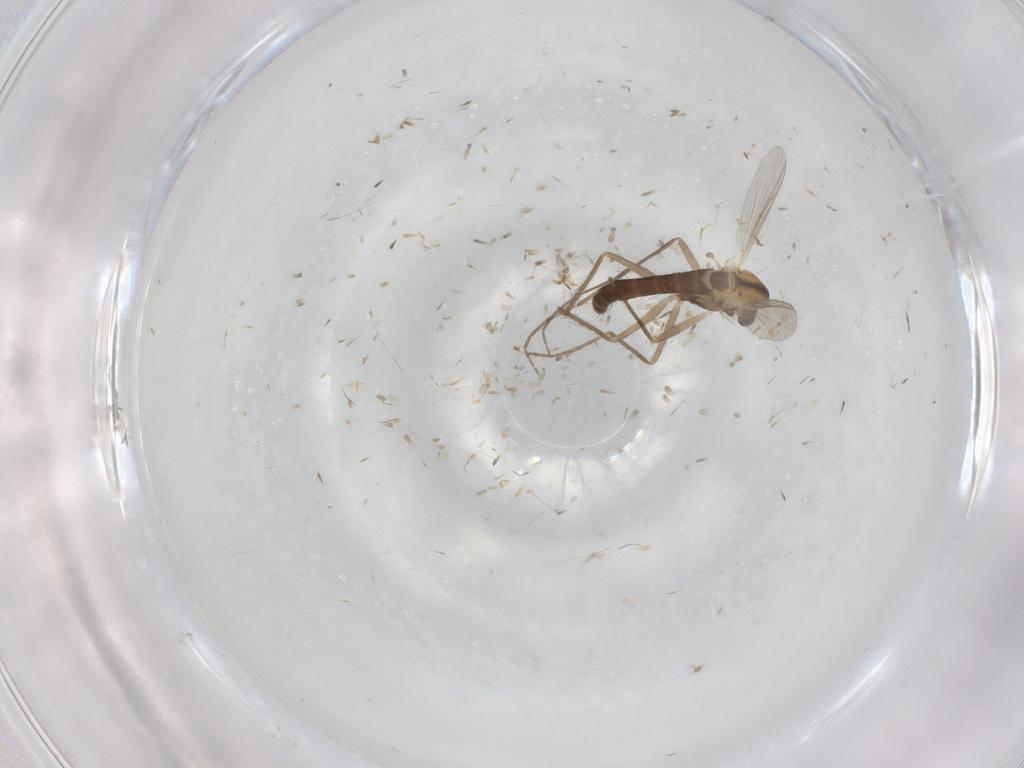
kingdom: Animalia
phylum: Arthropoda
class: Insecta
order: Diptera
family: Chironomidae
